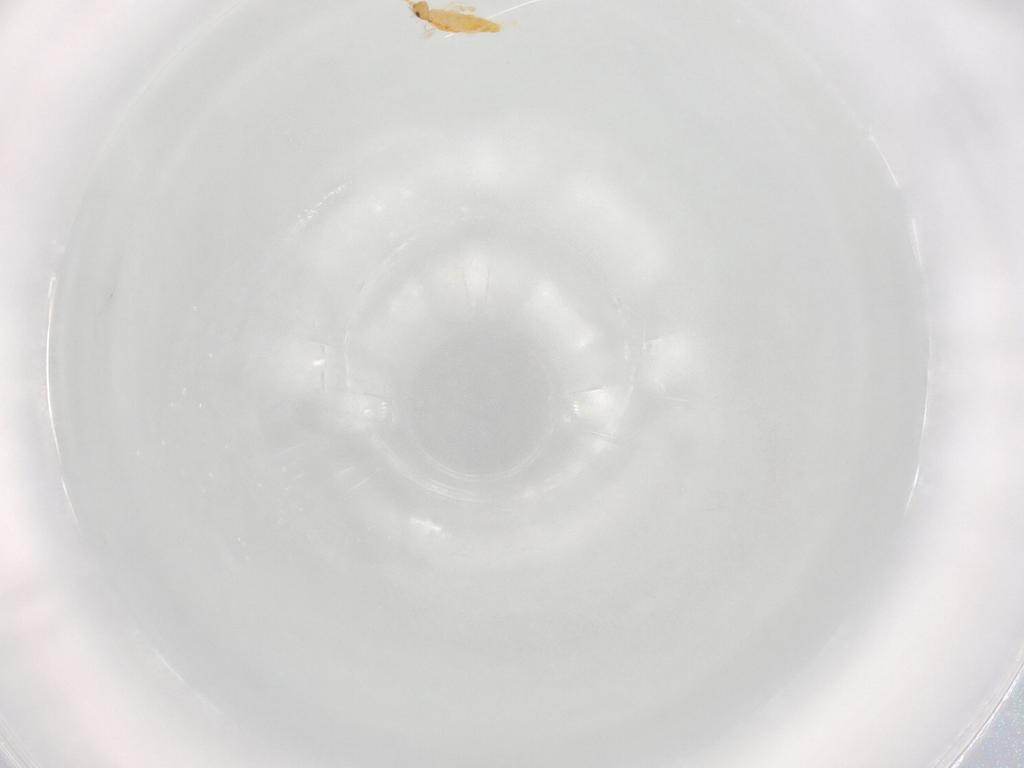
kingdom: Animalia
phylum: Arthropoda
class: Collembola
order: Entomobryomorpha
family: Entomobryidae
